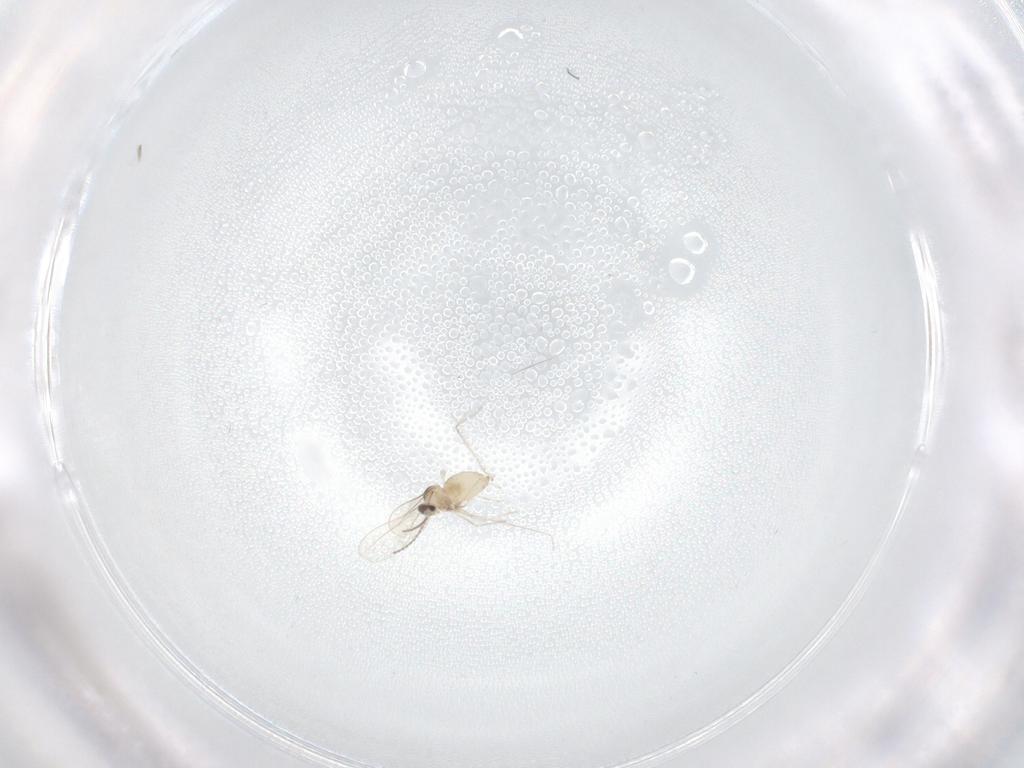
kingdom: Animalia
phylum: Arthropoda
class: Insecta
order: Diptera
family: Cecidomyiidae
